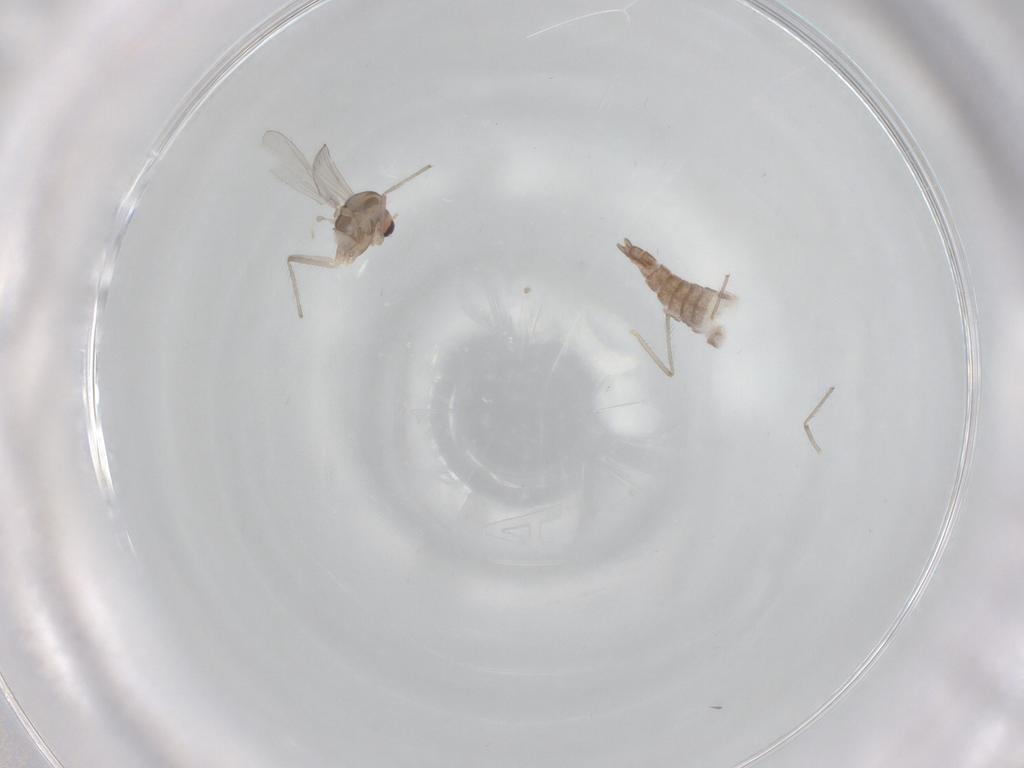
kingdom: Animalia
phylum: Arthropoda
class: Insecta
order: Diptera
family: Chironomidae
